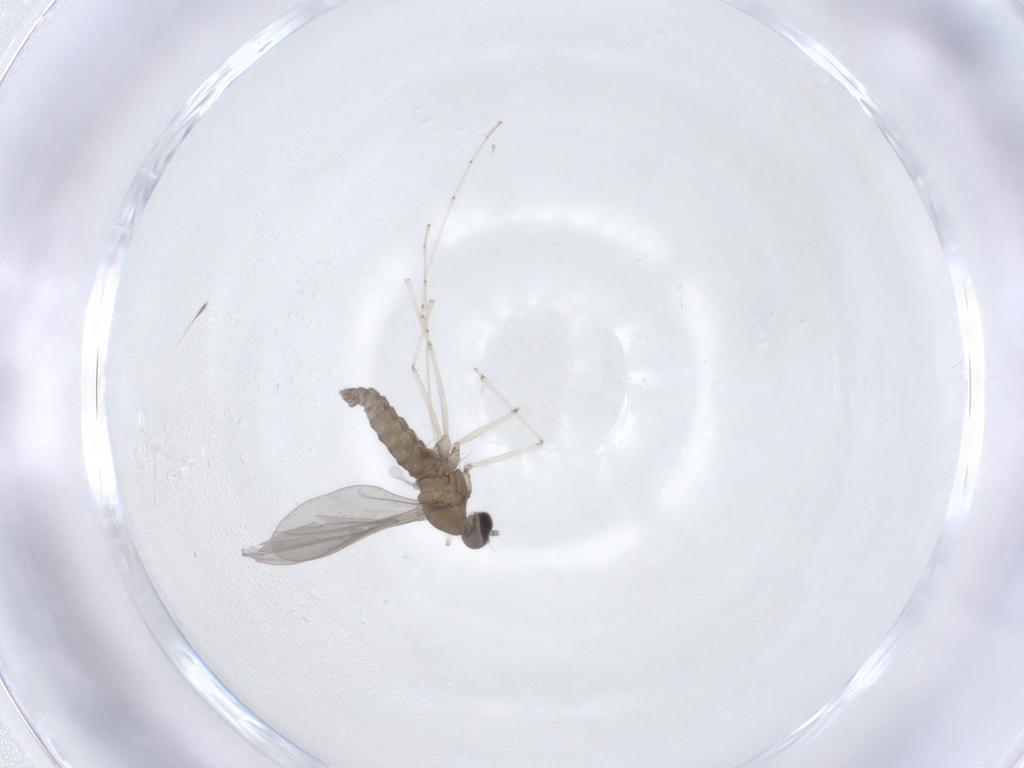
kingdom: Animalia
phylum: Arthropoda
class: Insecta
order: Diptera
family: Cecidomyiidae
